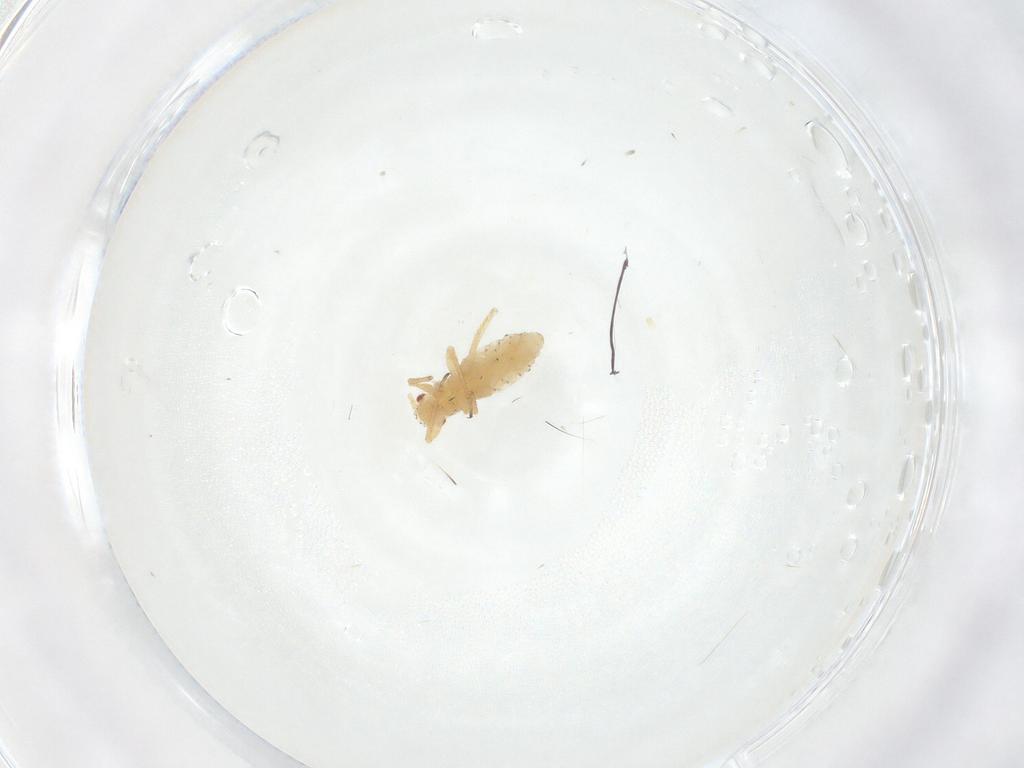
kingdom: Animalia
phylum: Arthropoda
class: Insecta
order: Hemiptera
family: Aphididae
